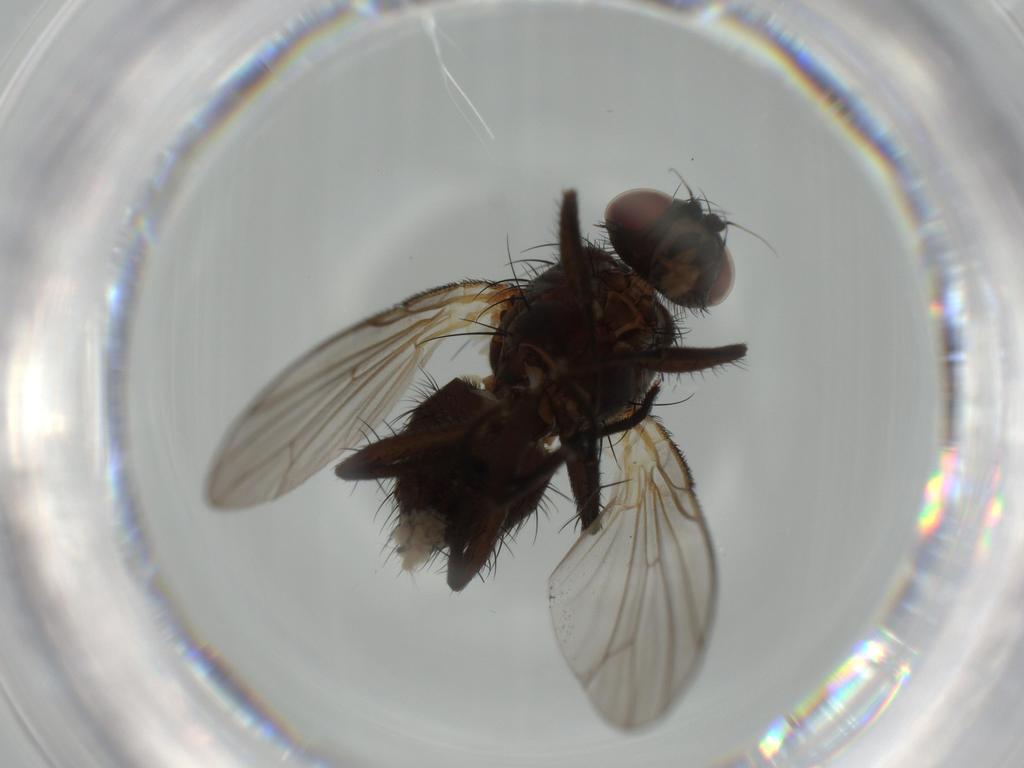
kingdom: Animalia
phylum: Arthropoda
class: Insecta
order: Diptera
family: Chironomidae
